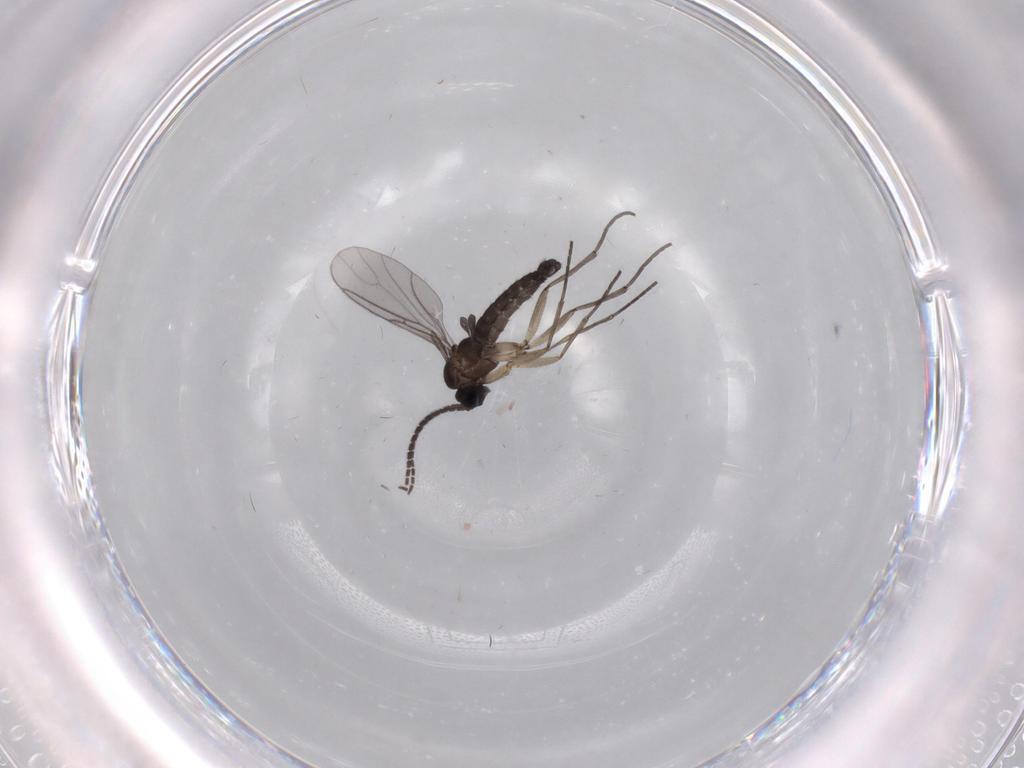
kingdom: Animalia
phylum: Arthropoda
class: Insecta
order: Diptera
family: Sciaridae
